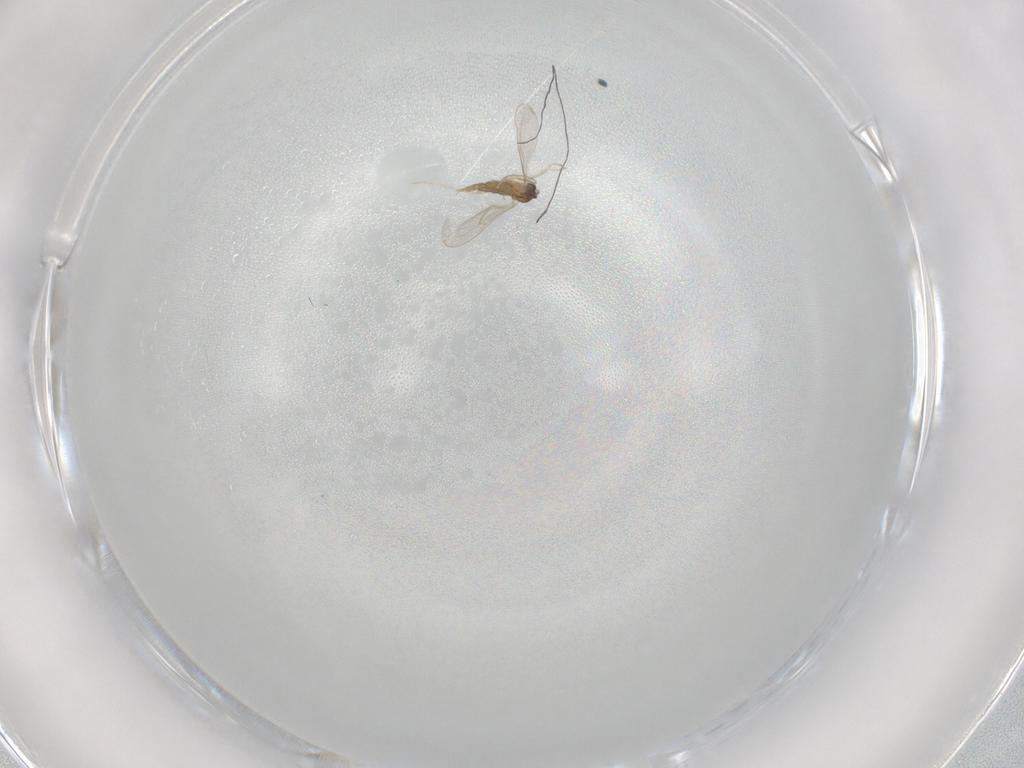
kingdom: Animalia
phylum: Arthropoda
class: Insecta
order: Diptera
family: Cecidomyiidae
